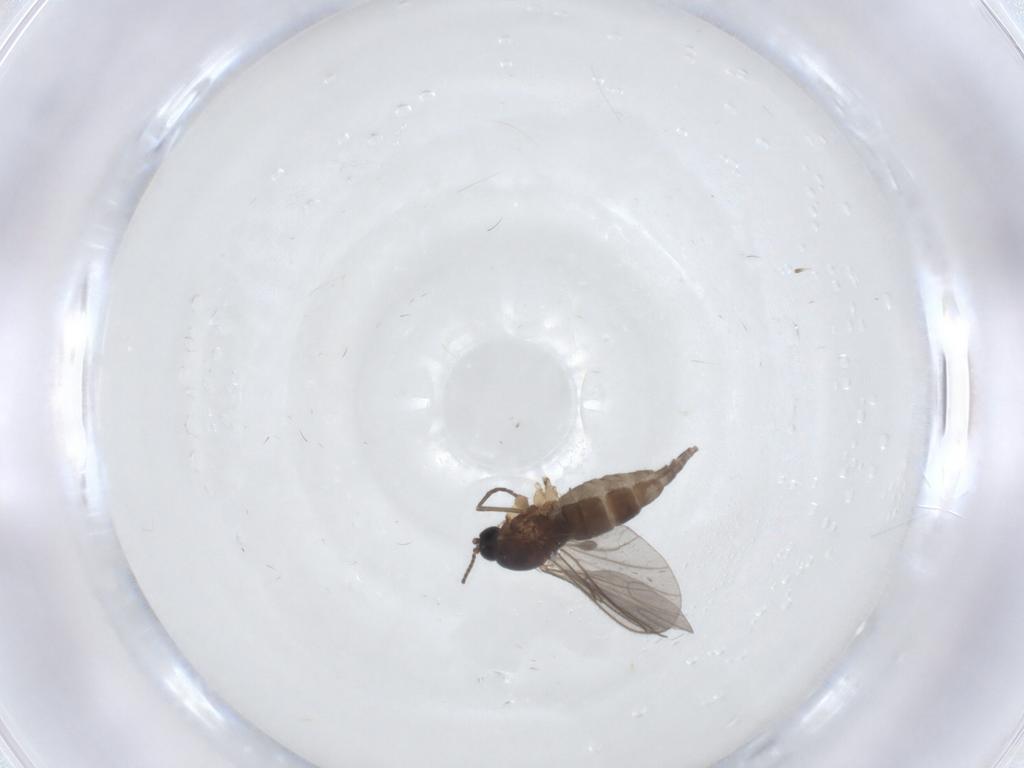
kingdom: Animalia
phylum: Arthropoda
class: Insecta
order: Diptera
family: Sciaridae
